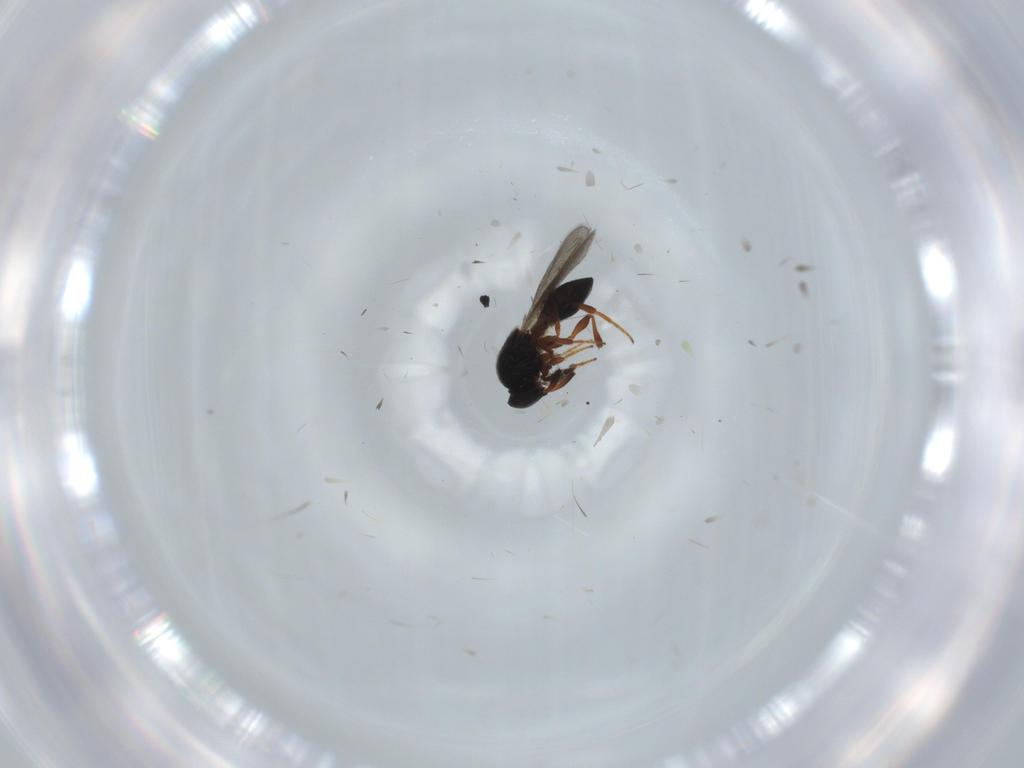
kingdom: Animalia
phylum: Arthropoda
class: Insecta
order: Hymenoptera
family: Platygastridae
